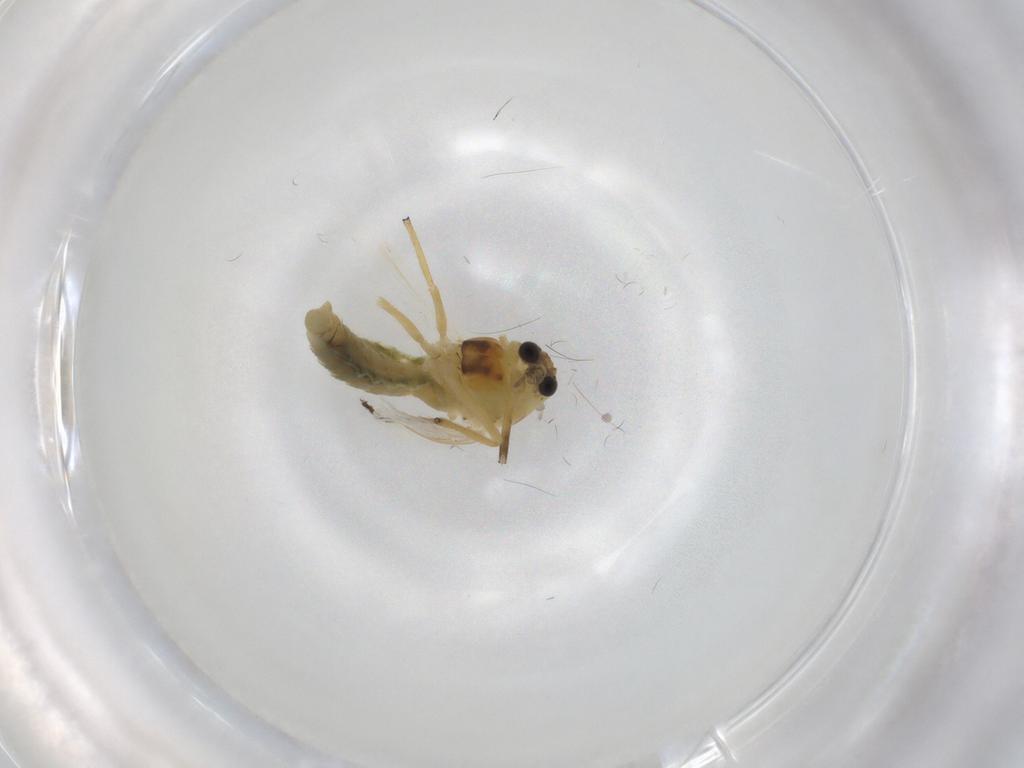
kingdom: Animalia
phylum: Arthropoda
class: Insecta
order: Diptera
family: Chironomidae
